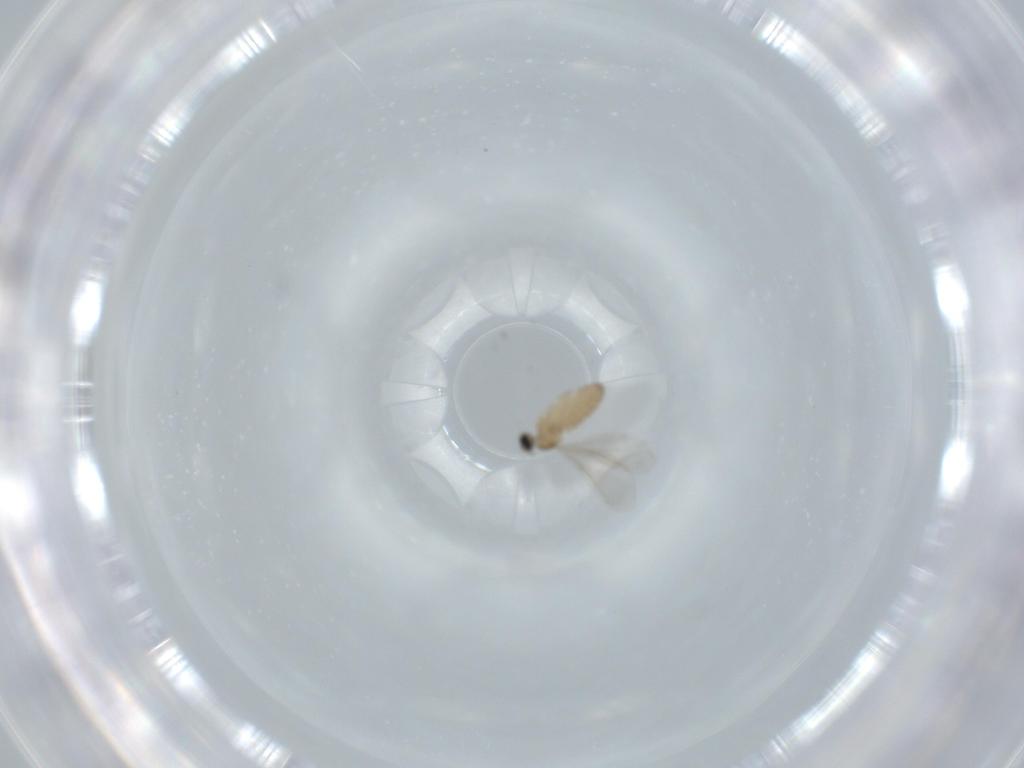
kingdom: Animalia
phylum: Arthropoda
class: Insecta
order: Diptera
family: Cecidomyiidae
